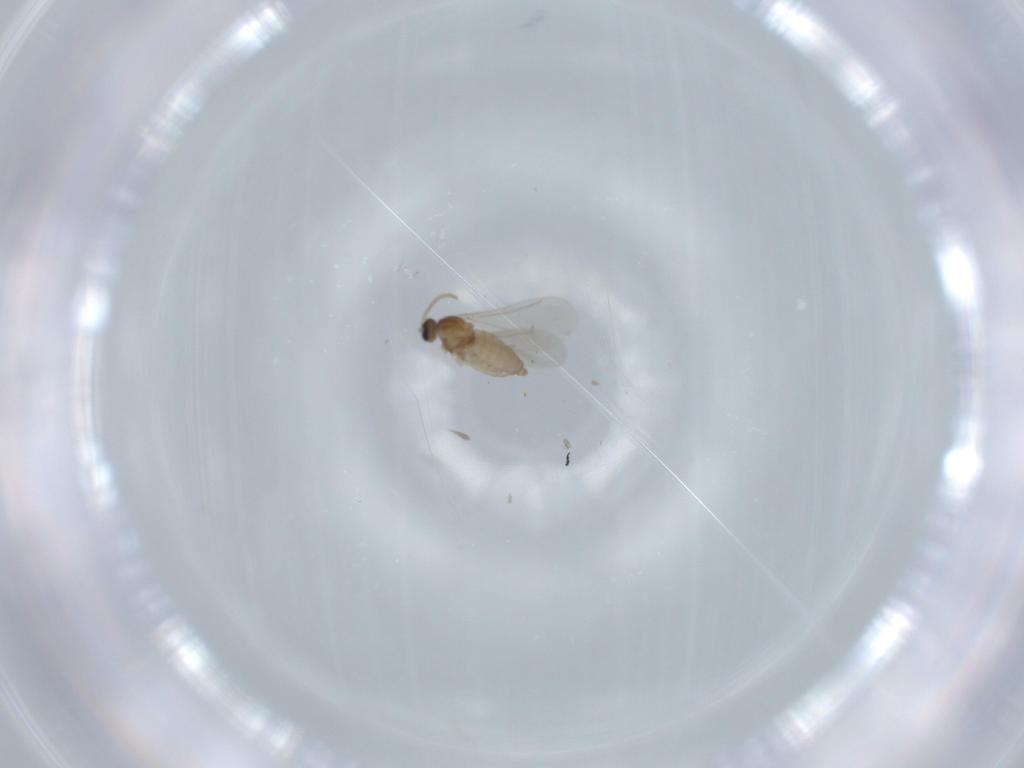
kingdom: Animalia
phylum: Arthropoda
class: Insecta
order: Diptera
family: Cecidomyiidae
